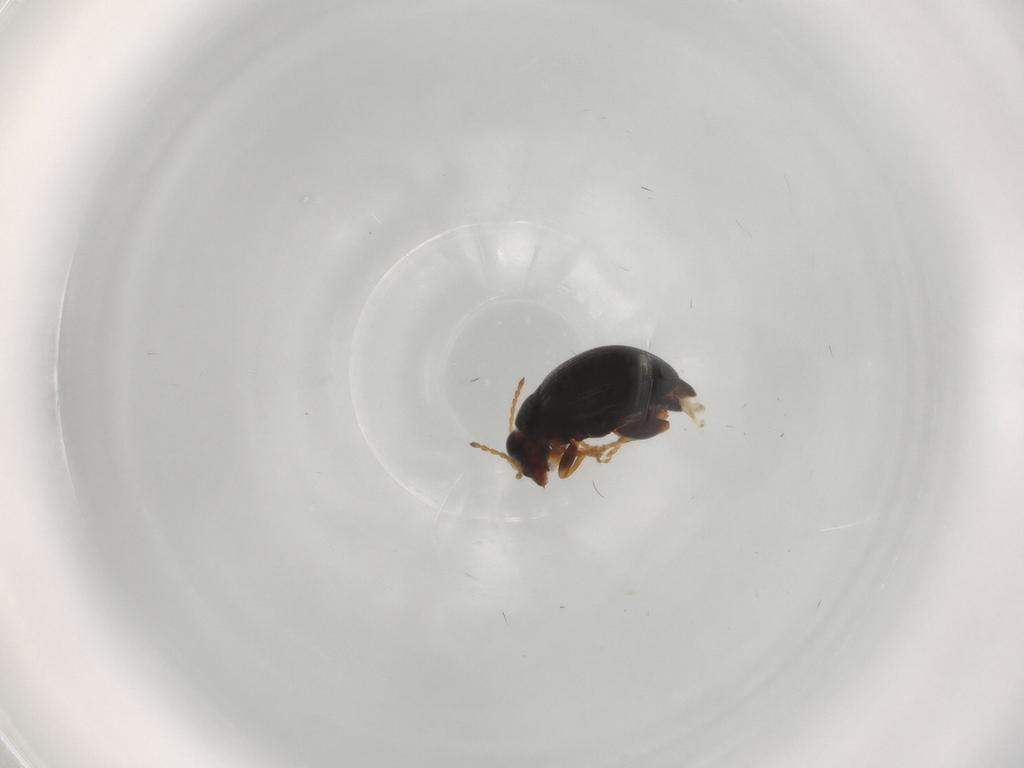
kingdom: Animalia
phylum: Arthropoda
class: Insecta
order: Coleoptera
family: Chrysomelidae
